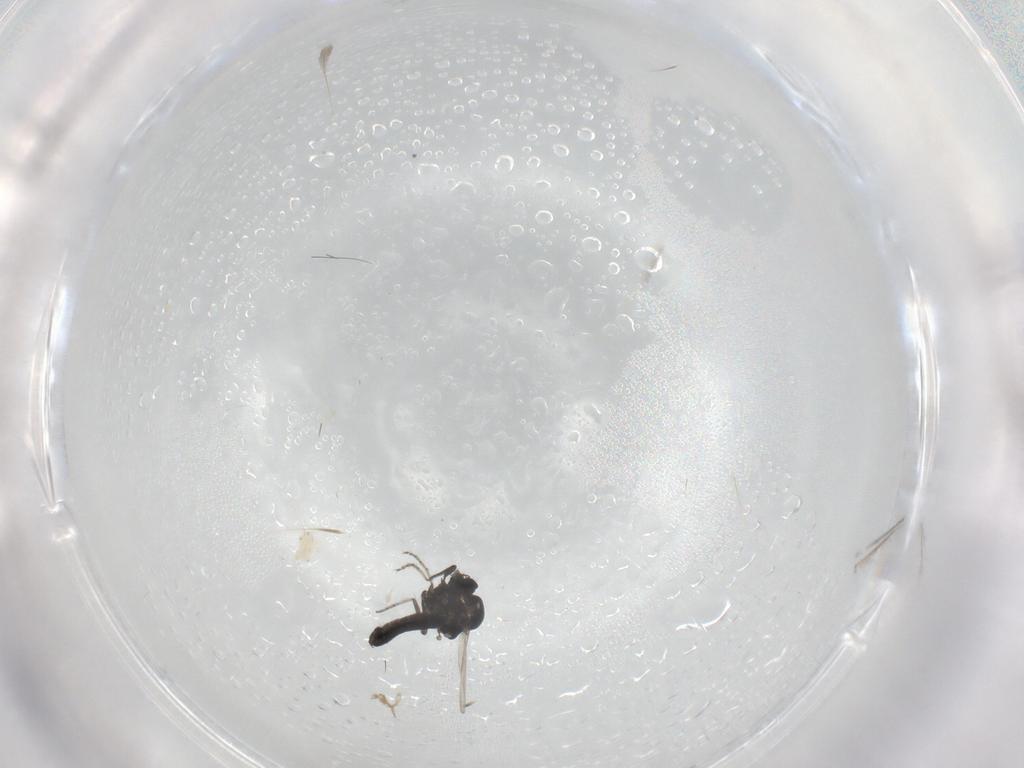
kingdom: Animalia
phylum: Arthropoda
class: Insecta
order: Diptera
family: Ceratopogonidae
